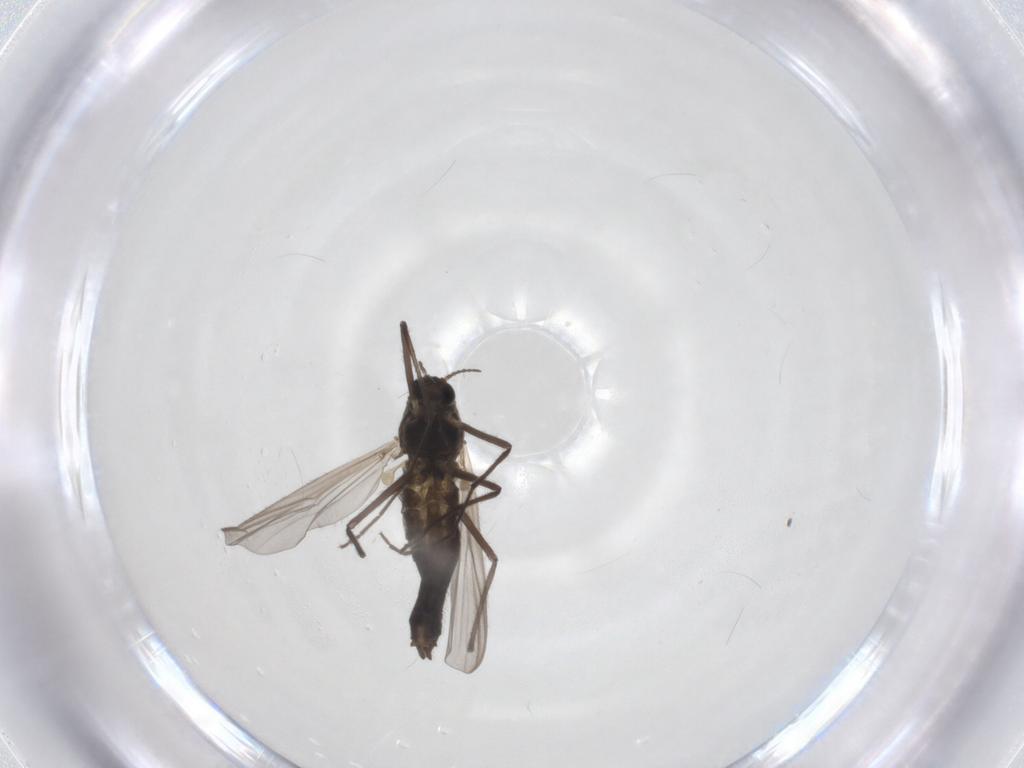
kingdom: Animalia
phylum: Arthropoda
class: Insecta
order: Diptera
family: Chironomidae
